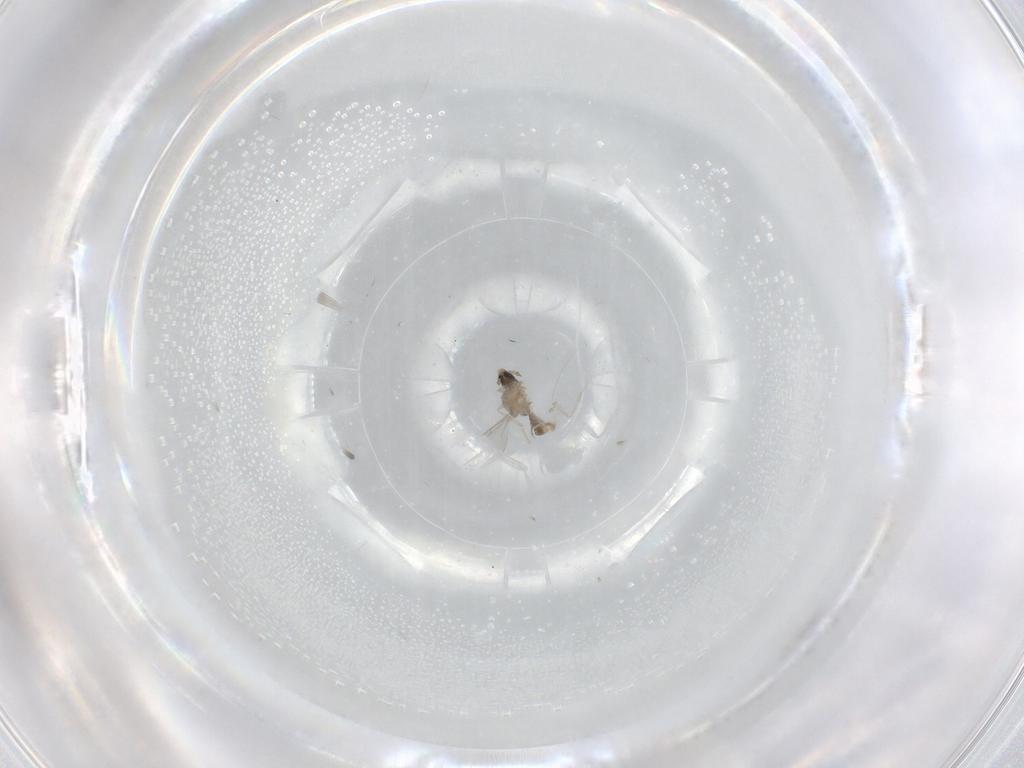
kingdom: Animalia
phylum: Arthropoda
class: Insecta
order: Diptera
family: Cecidomyiidae
